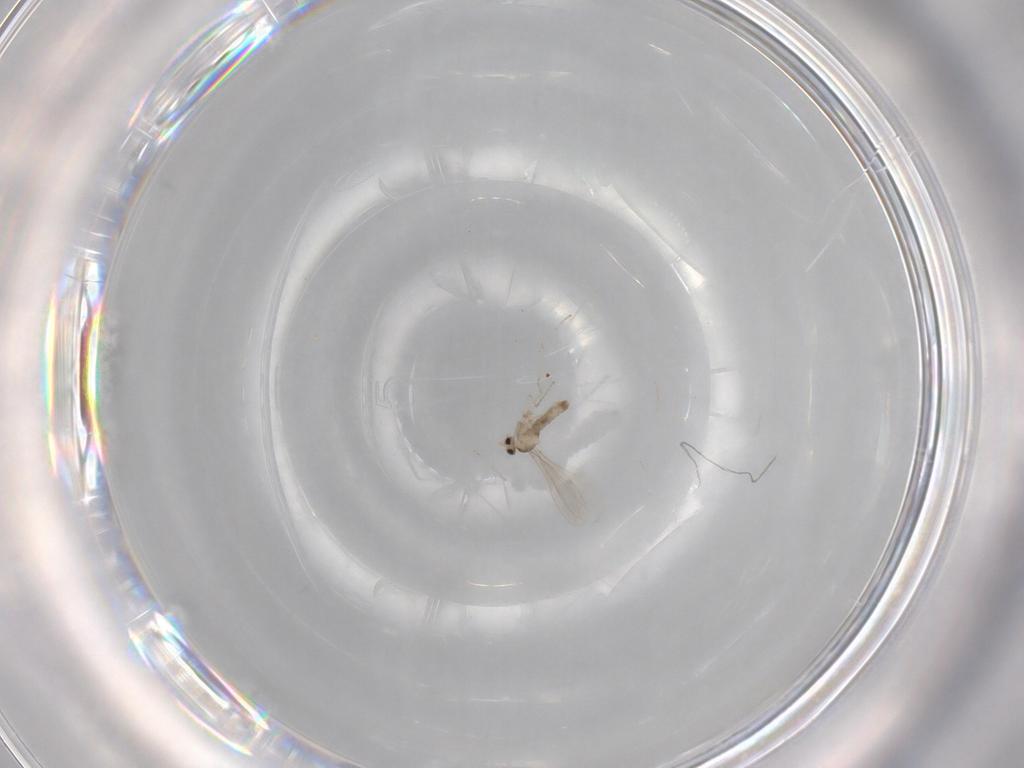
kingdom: Animalia
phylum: Arthropoda
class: Insecta
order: Diptera
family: Cecidomyiidae
